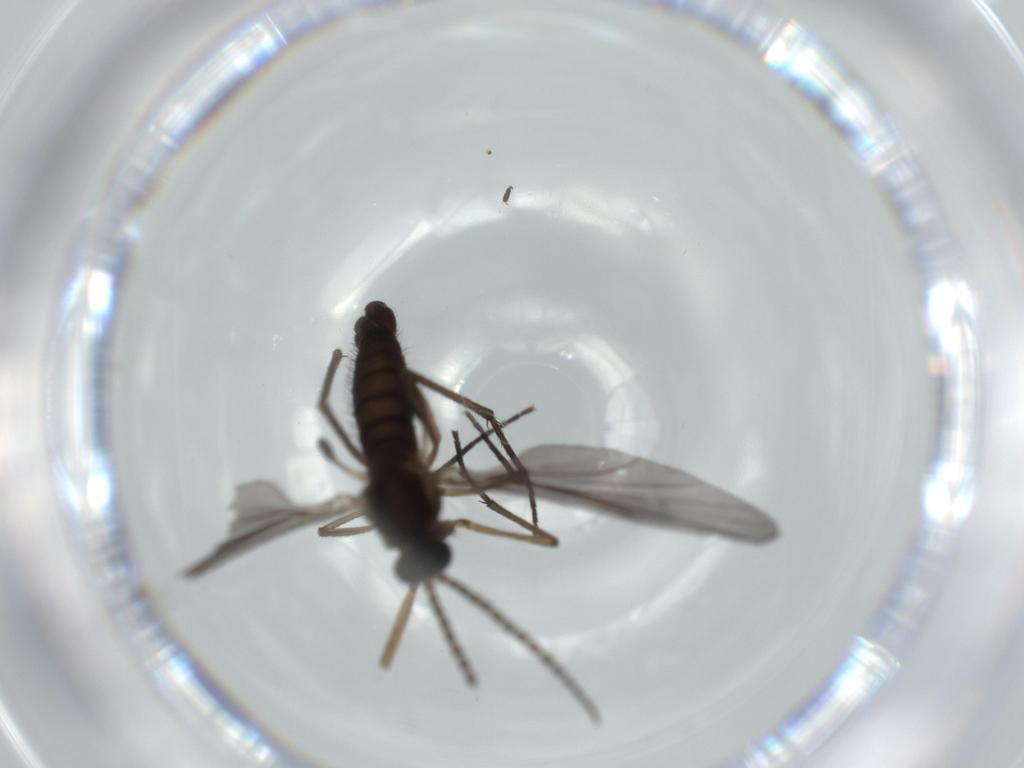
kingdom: Animalia
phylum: Arthropoda
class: Insecta
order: Diptera
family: Sciaridae
